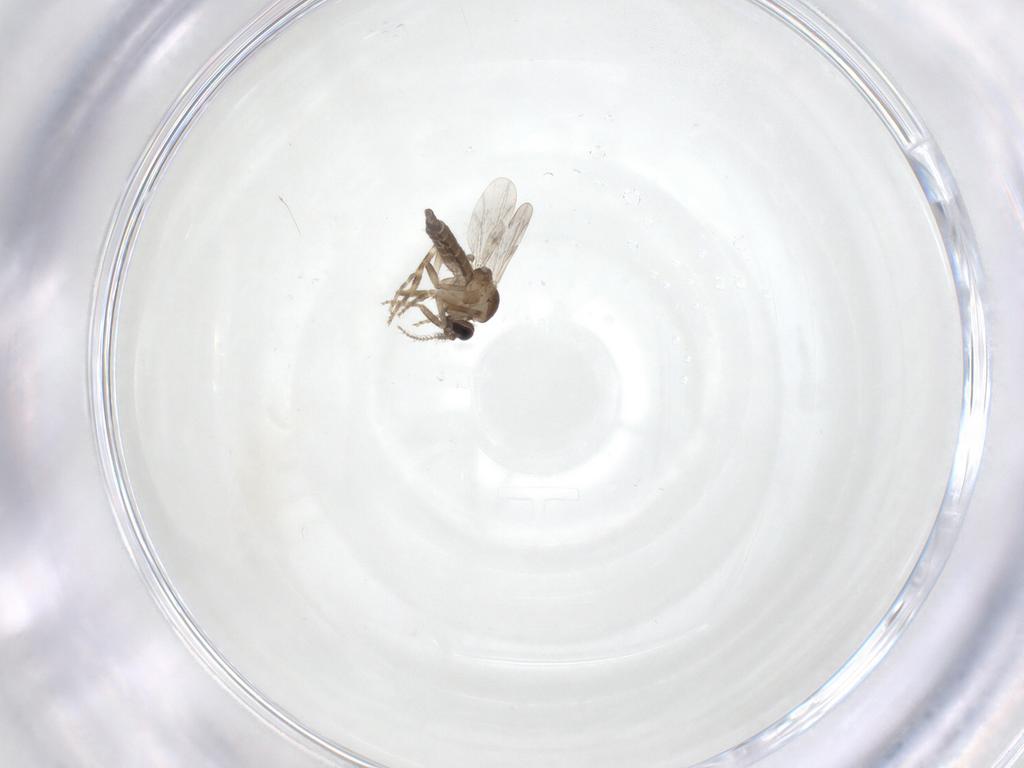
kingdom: Animalia
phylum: Arthropoda
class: Insecta
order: Diptera
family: Ceratopogonidae
